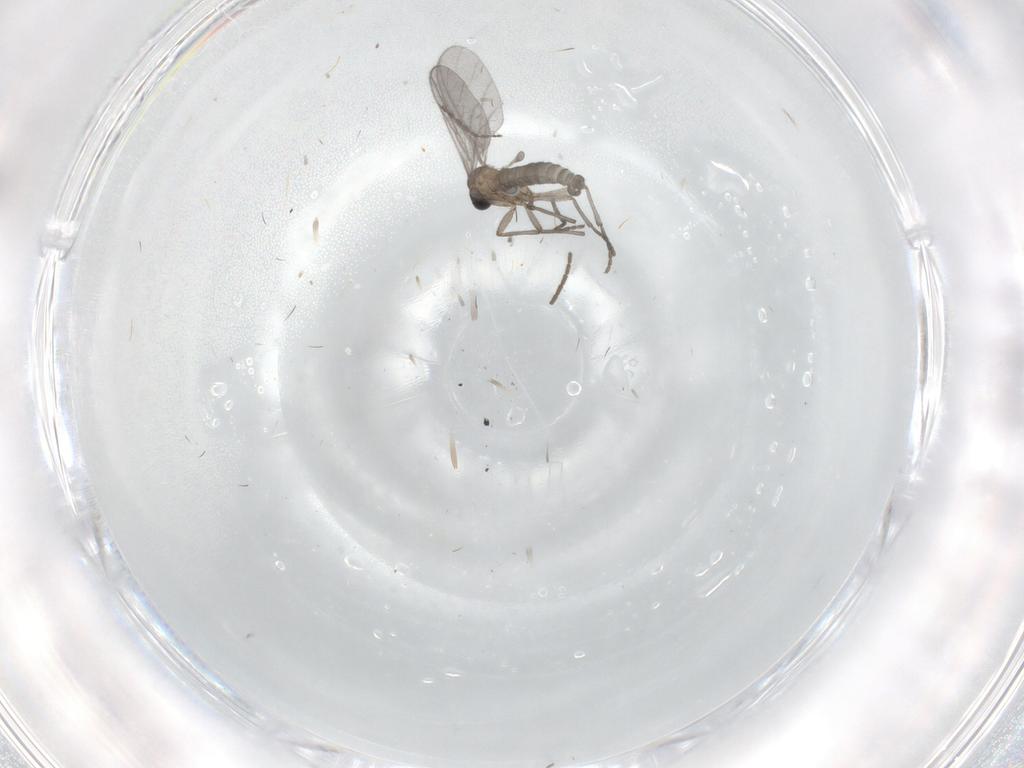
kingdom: Animalia
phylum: Arthropoda
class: Insecta
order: Diptera
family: Sciaridae
